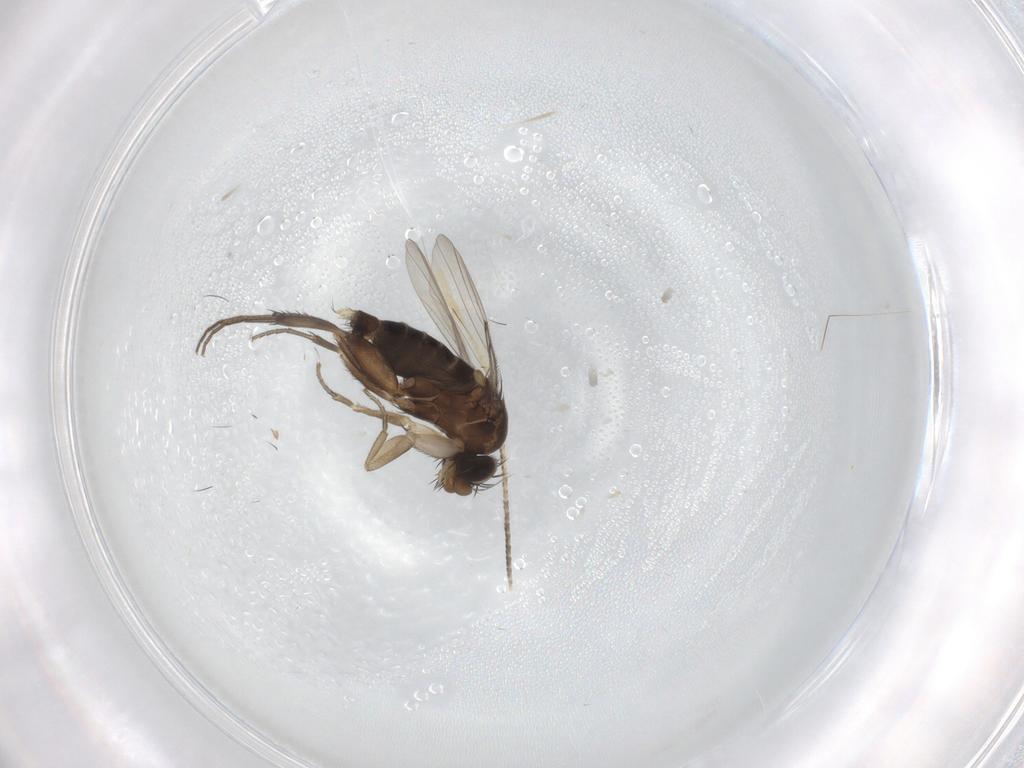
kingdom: Animalia
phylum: Arthropoda
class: Insecta
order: Diptera
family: Phoridae
